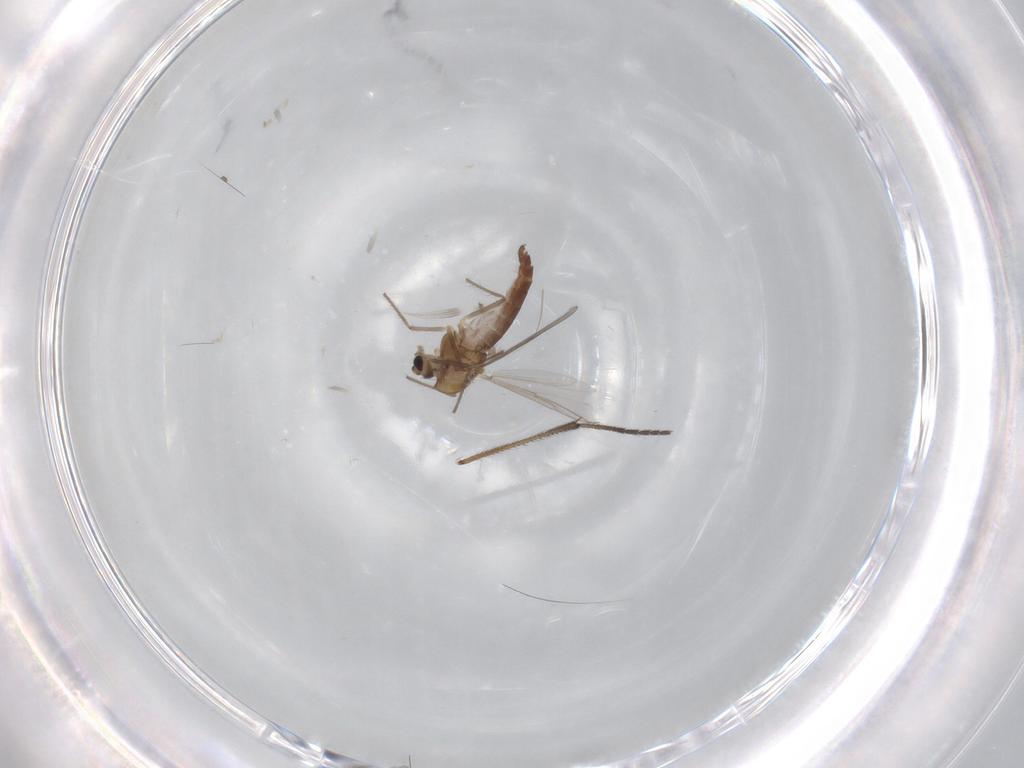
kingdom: Animalia
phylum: Arthropoda
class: Insecta
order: Diptera
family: Chironomidae
